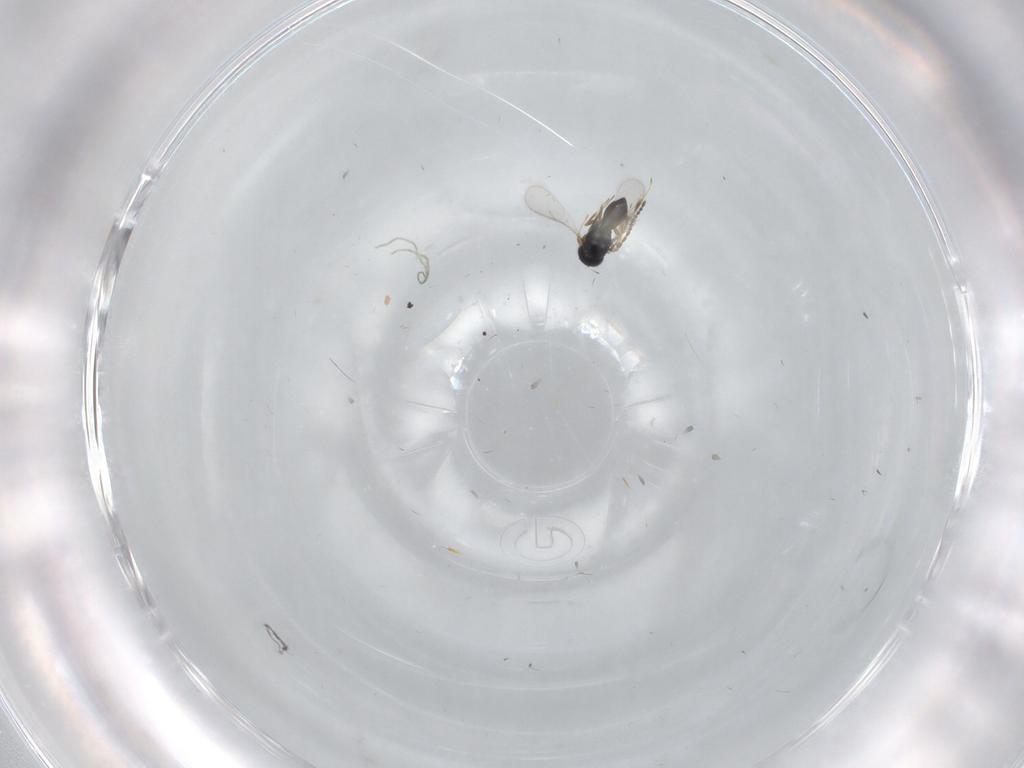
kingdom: Animalia
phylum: Arthropoda
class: Insecta
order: Hymenoptera
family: Scelionidae
